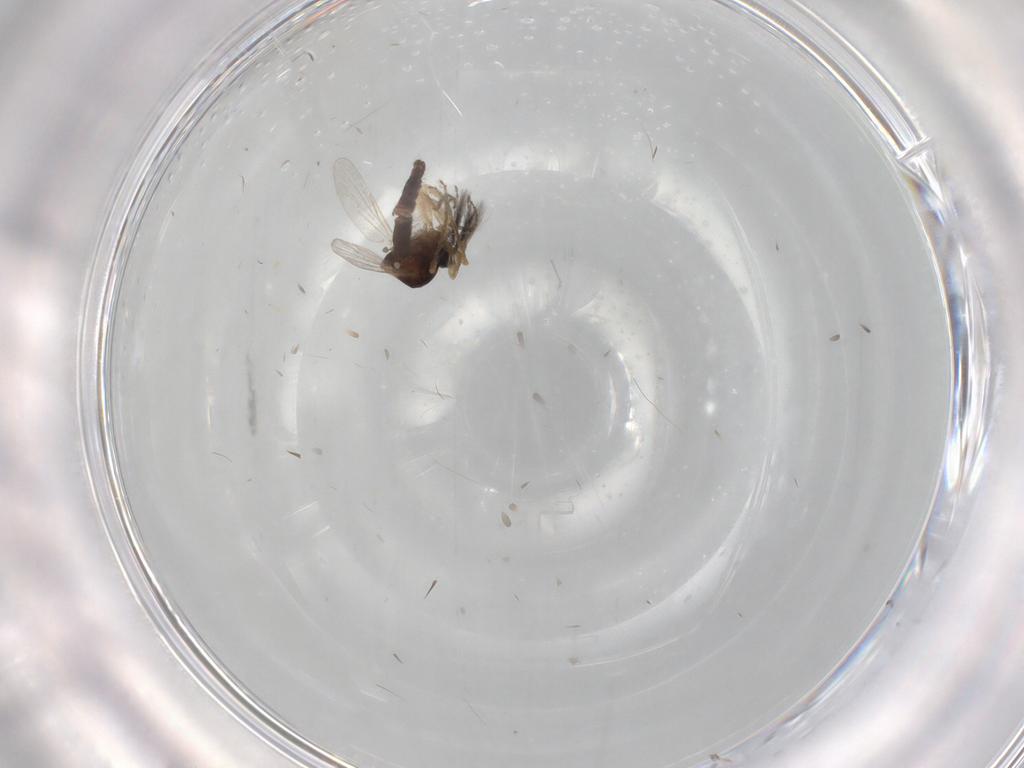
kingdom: Animalia
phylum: Arthropoda
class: Insecta
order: Diptera
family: Ceratopogonidae
